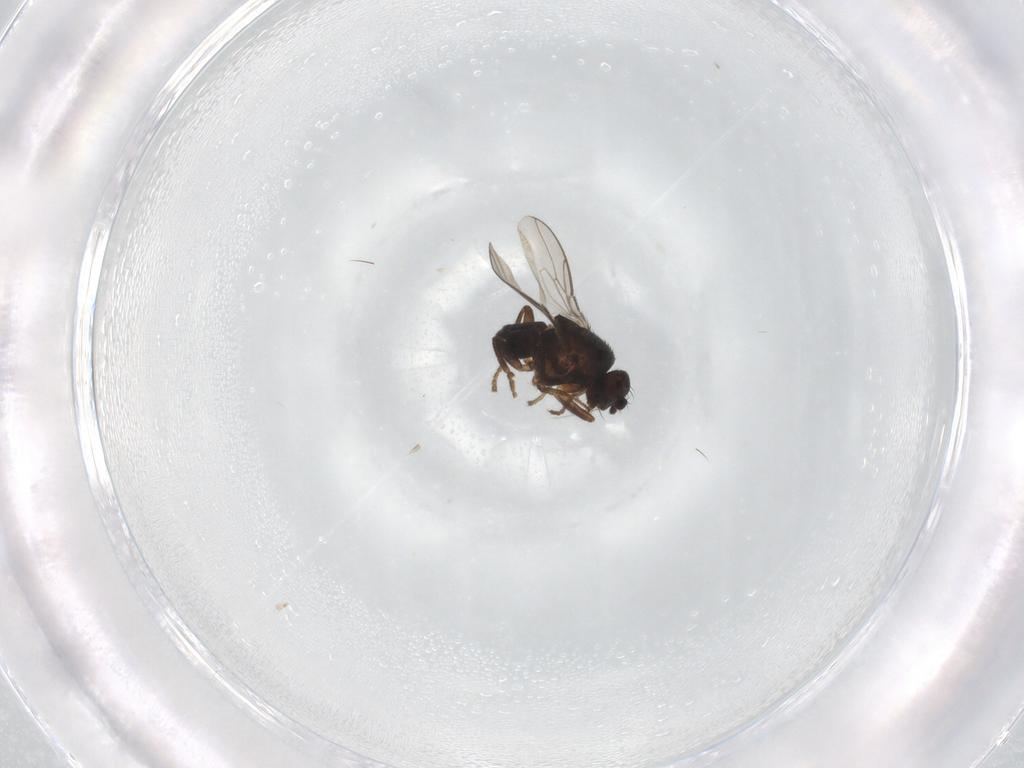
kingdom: Animalia
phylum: Arthropoda
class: Insecta
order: Diptera
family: Sphaeroceridae
